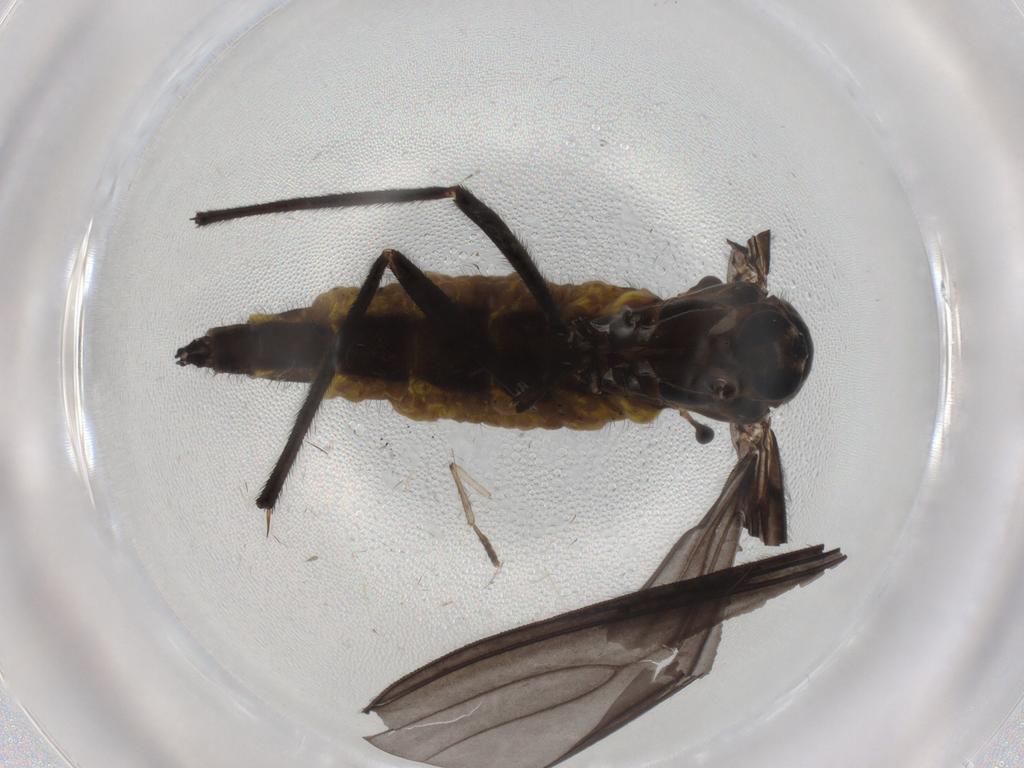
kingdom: Animalia
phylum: Arthropoda
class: Insecta
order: Diptera
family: Psychodidae
